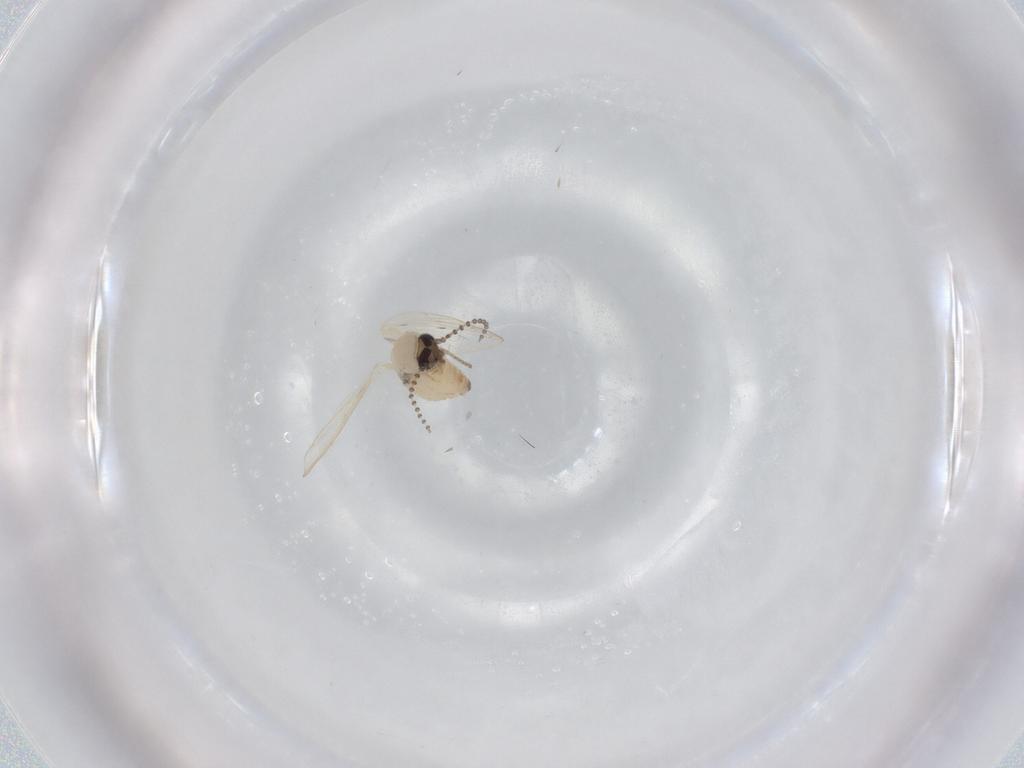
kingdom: Animalia
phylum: Arthropoda
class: Insecta
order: Diptera
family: Psychodidae
